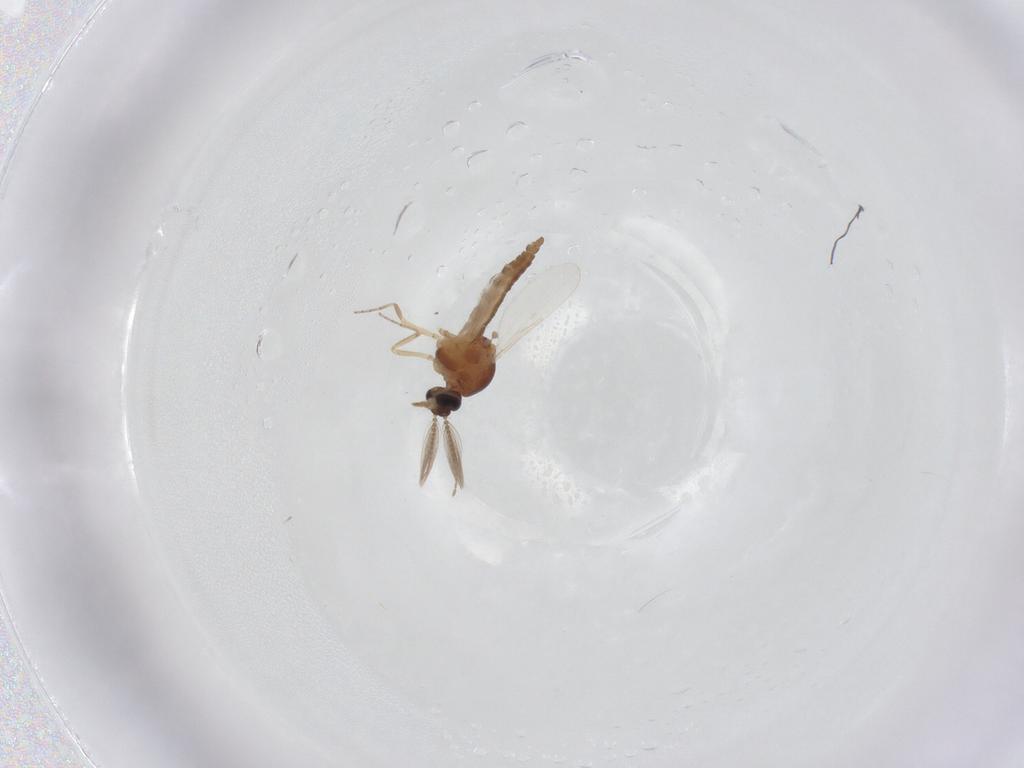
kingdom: Animalia
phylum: Arthropoda
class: Insecta
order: Diptera
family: Ceratopogonidae
